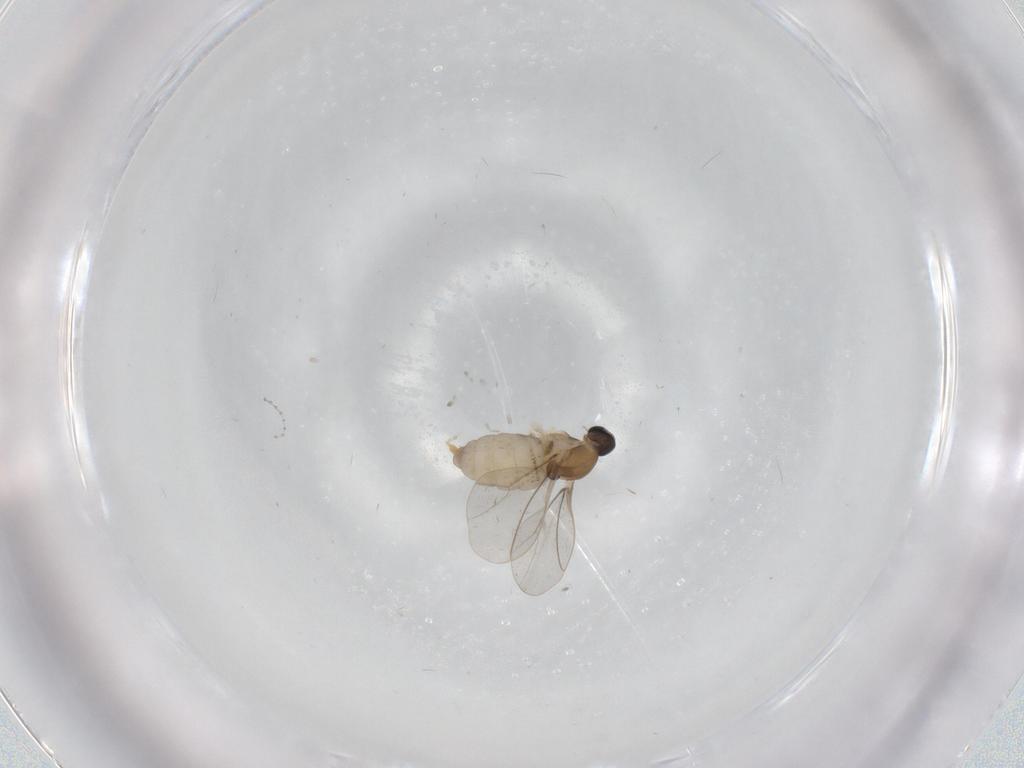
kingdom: Animalia
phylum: Arthropoda
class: Insecta
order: Diptera
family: Cecidomyiidae
